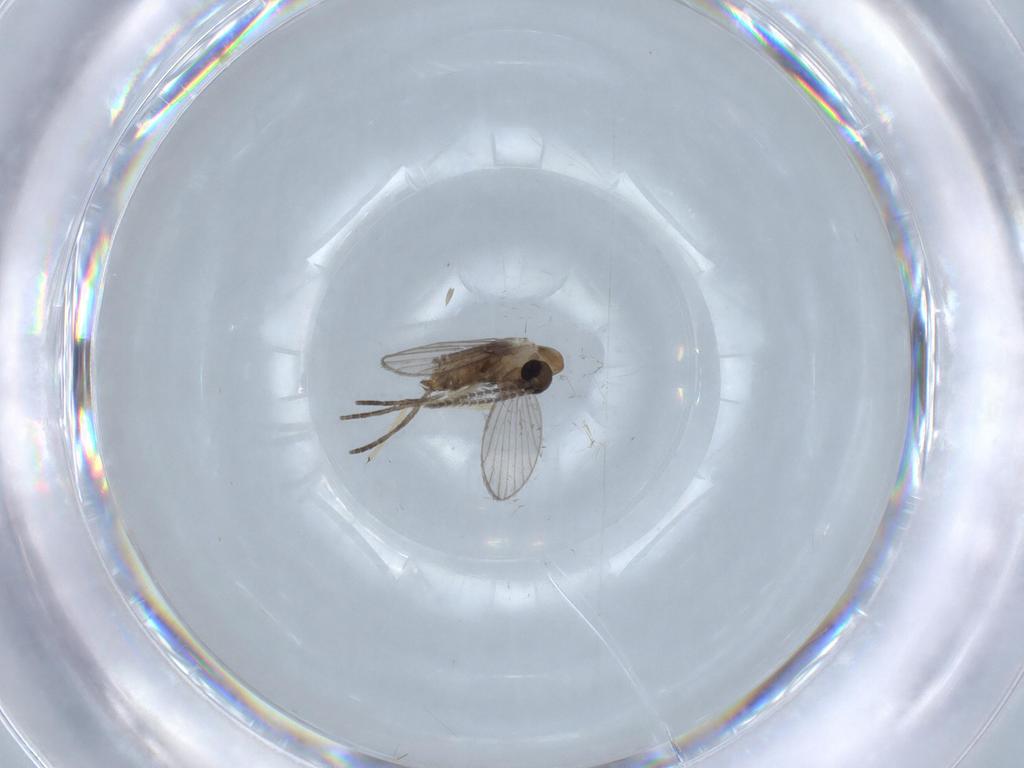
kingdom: Animalia
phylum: Arthropoda
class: Insecta
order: Diptera
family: Psychodidae
